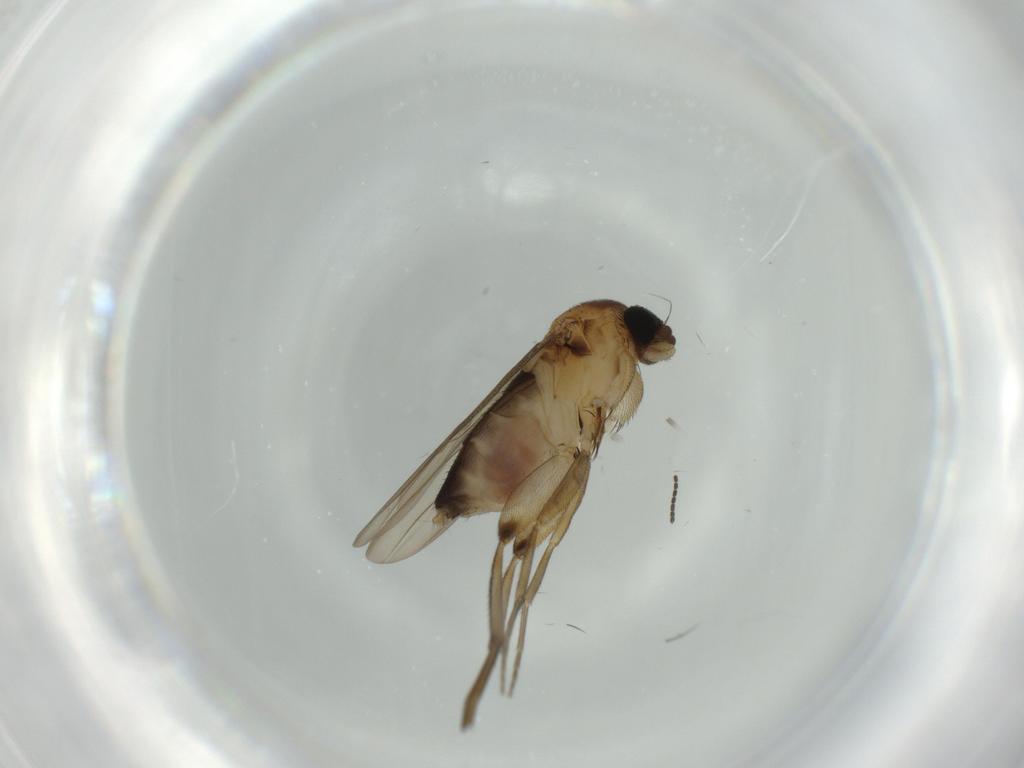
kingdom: Animalia
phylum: Arthropoda
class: Insecta
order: Diptera
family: Phoridae
